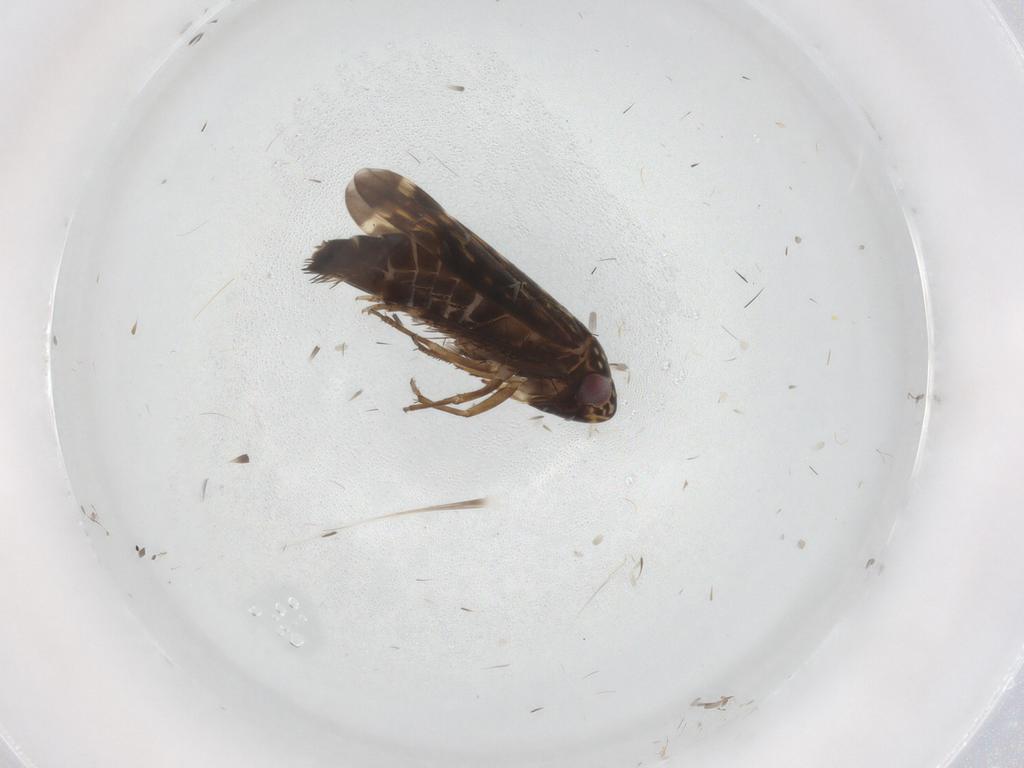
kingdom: Animalia
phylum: Arthropoda
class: Insecta
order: Hemiptera
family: Cicadellidae
